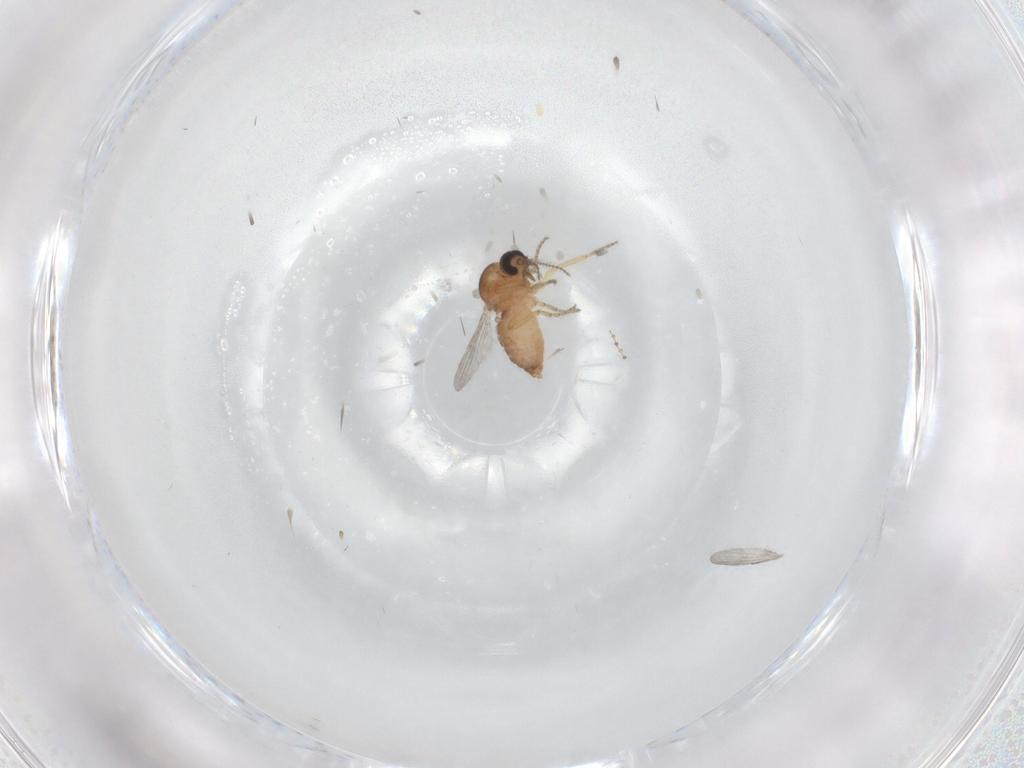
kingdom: Animalia
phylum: Arthropoda
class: Insecta
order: Diptera
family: Ceratopogonidae
